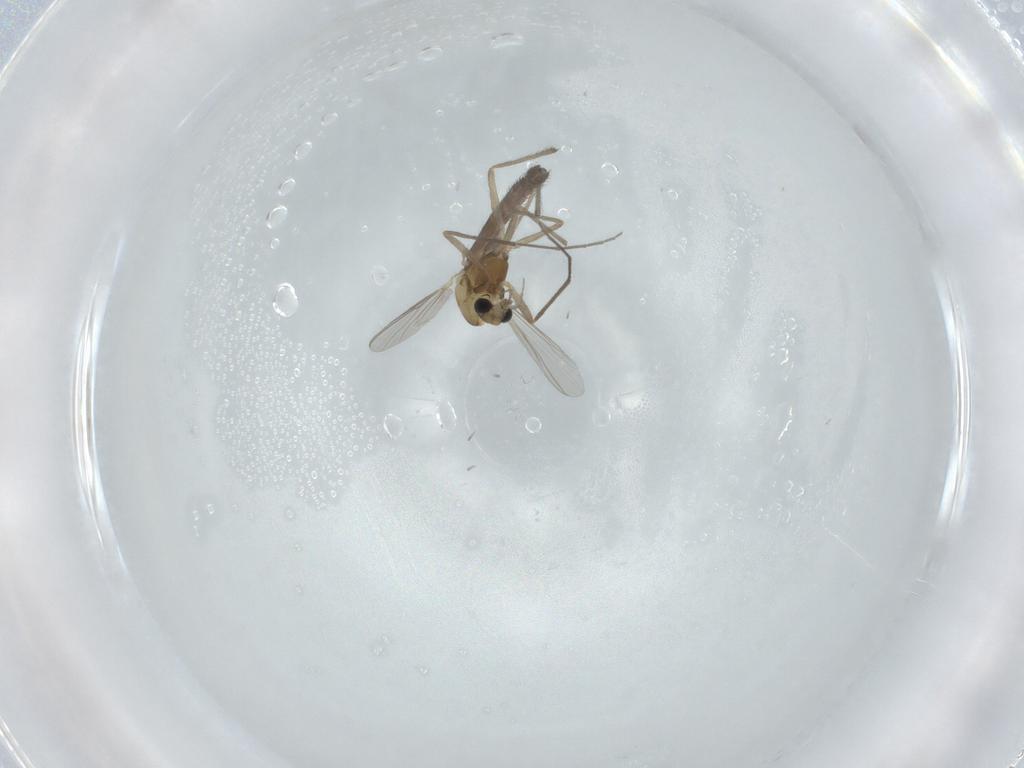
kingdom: Animalia
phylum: Arthropoda
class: Insecta
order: Diptera
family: Chironomidae
